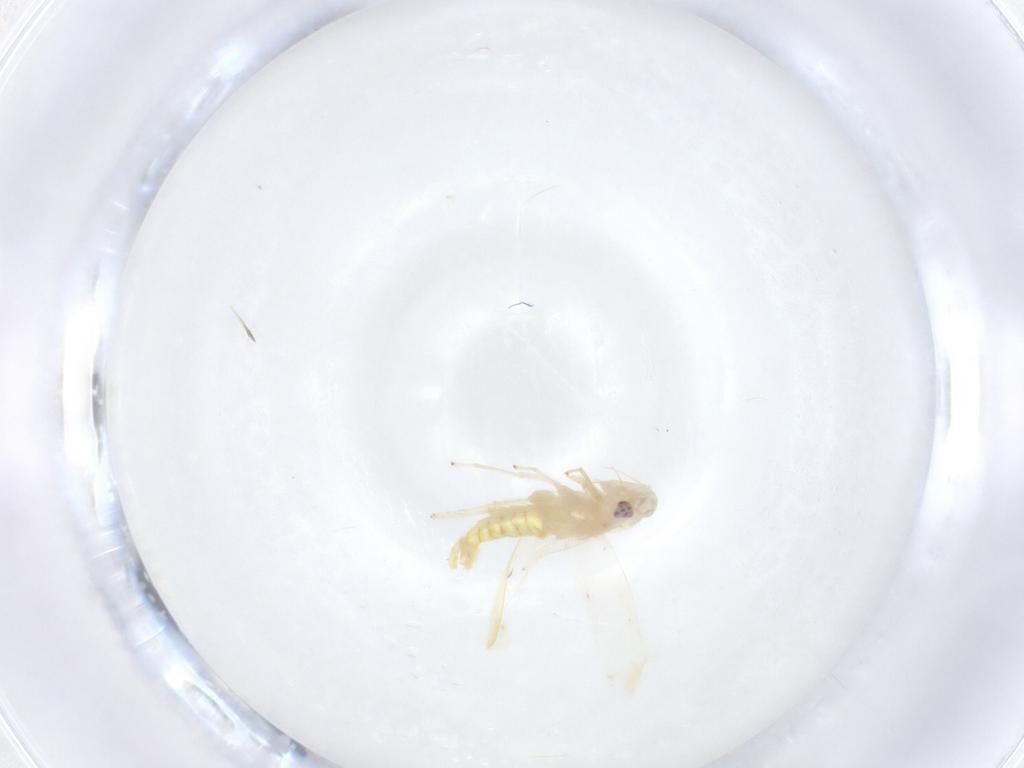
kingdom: Animalia
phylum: Arthropoda
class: Insecta
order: Hemiptera
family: Cicadellidae
